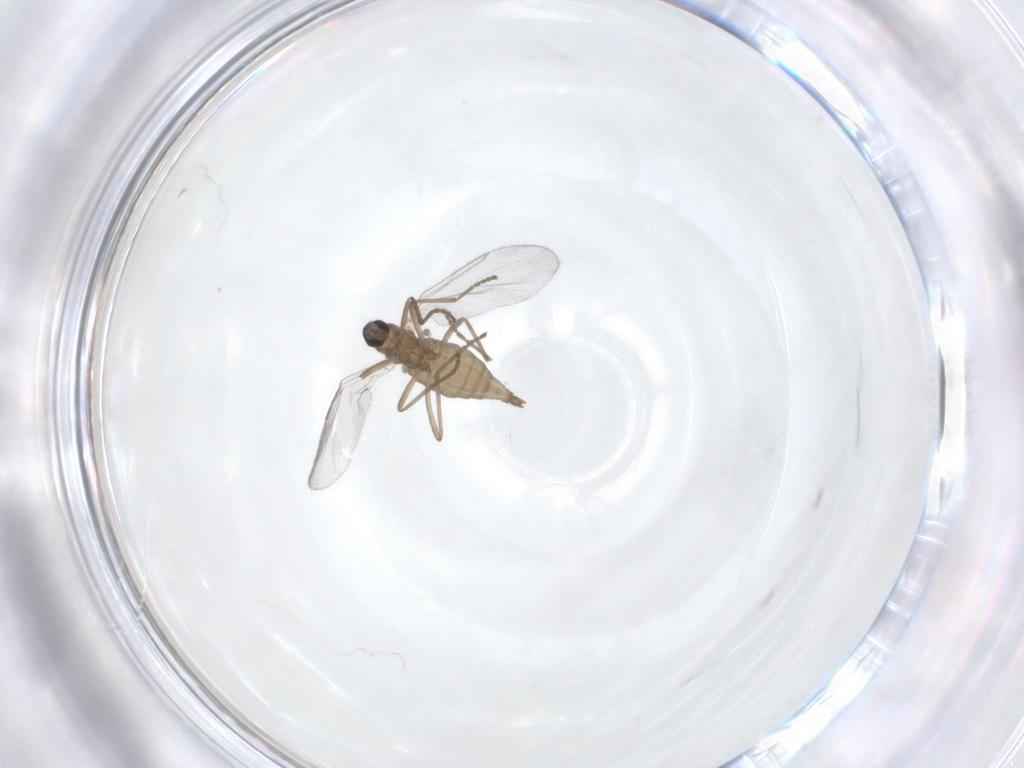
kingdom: Animalia
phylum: Arthropoda
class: Insecta
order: Diptera
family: Cecidomyiidae
